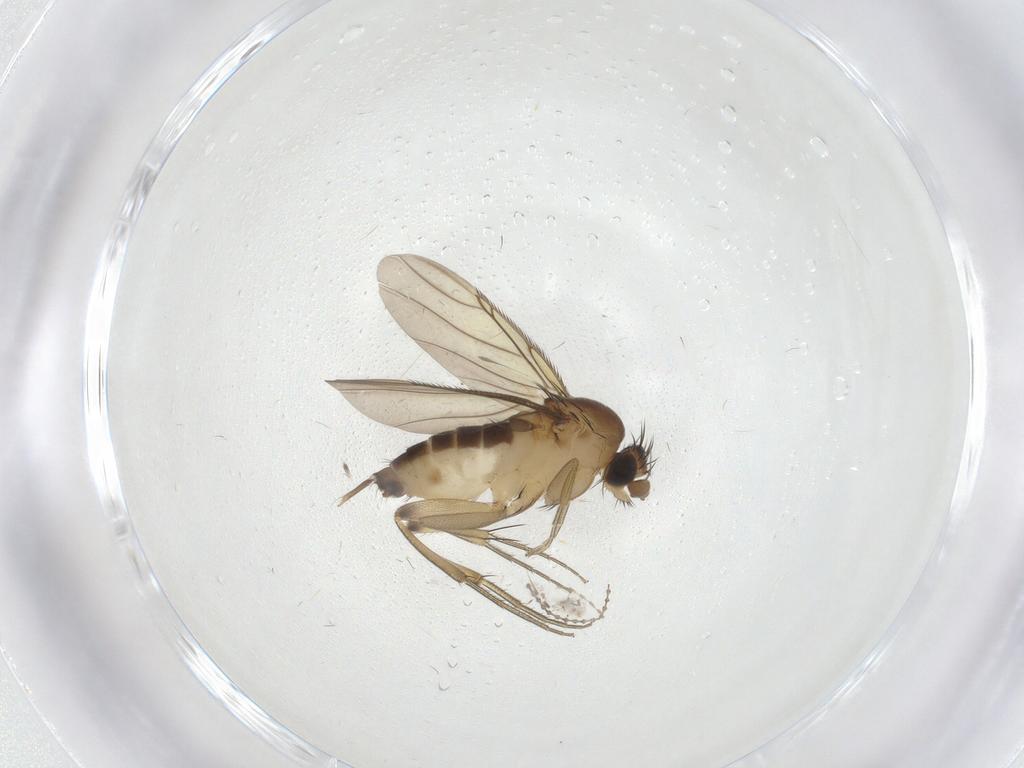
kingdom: Animalia
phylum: Arthropoda
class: Insecta
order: Diptera
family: Phoridae
